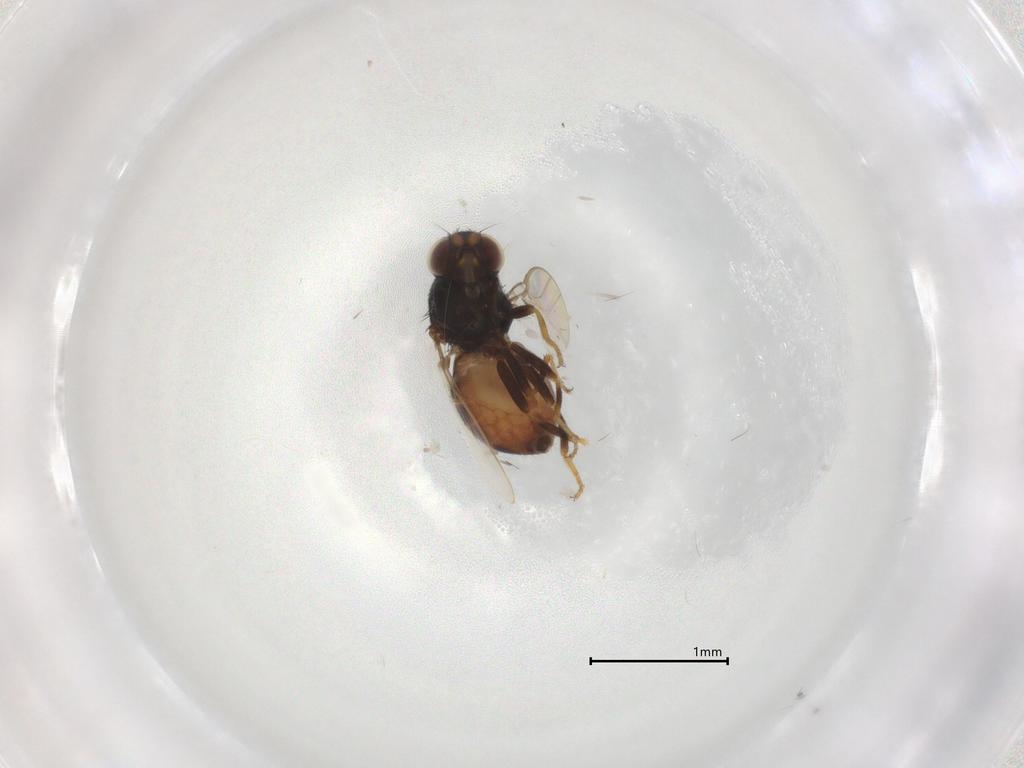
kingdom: Animalia
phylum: Arthropoda
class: Insecta
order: Diptera
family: Chloropidae
